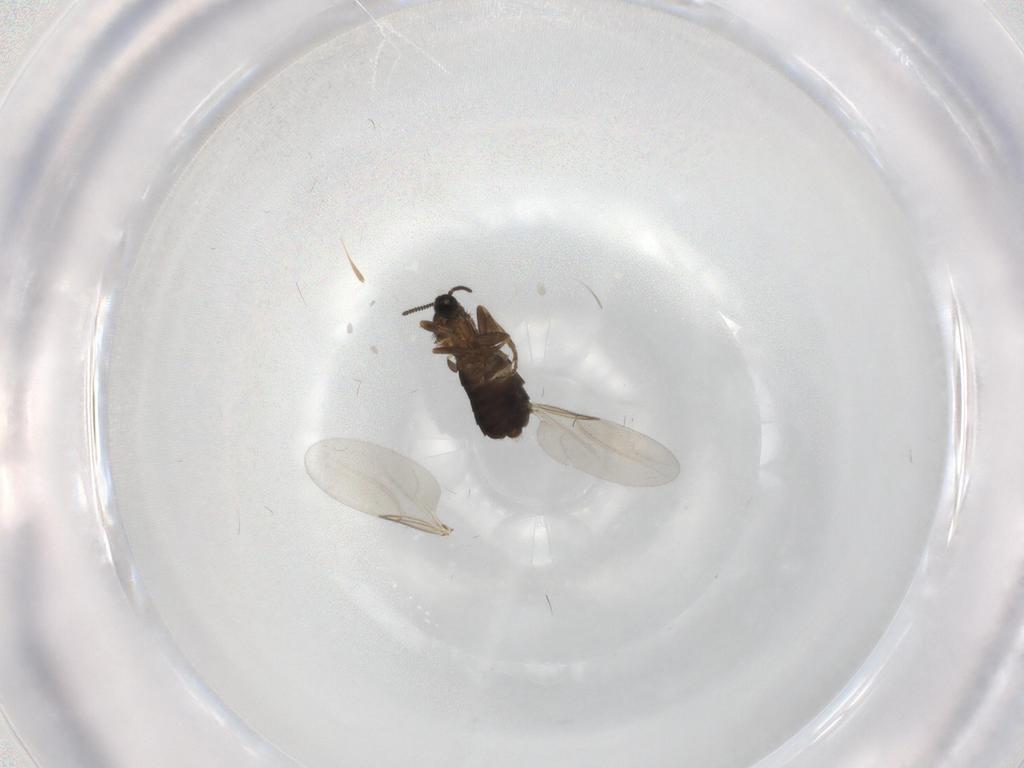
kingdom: Animalia
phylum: Arthropoda
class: Insecta
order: Diptera
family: Scatopsidae
